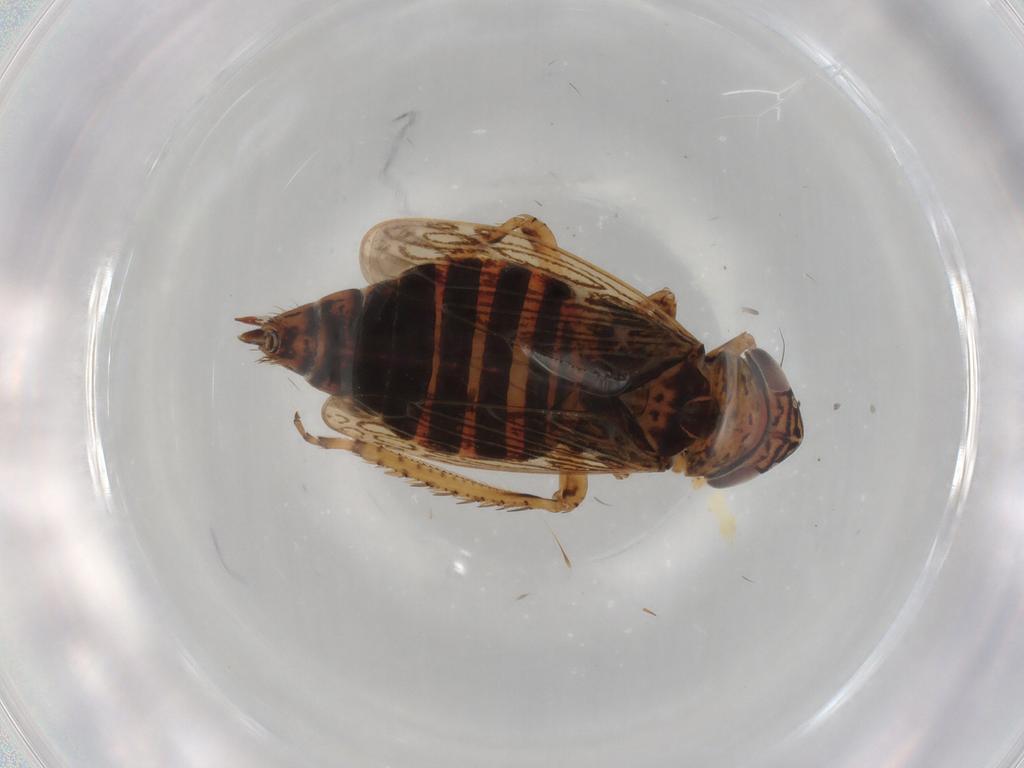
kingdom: Animalia
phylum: Arthropoda
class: Insecta
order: Hemiptera
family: Cicadellidae
